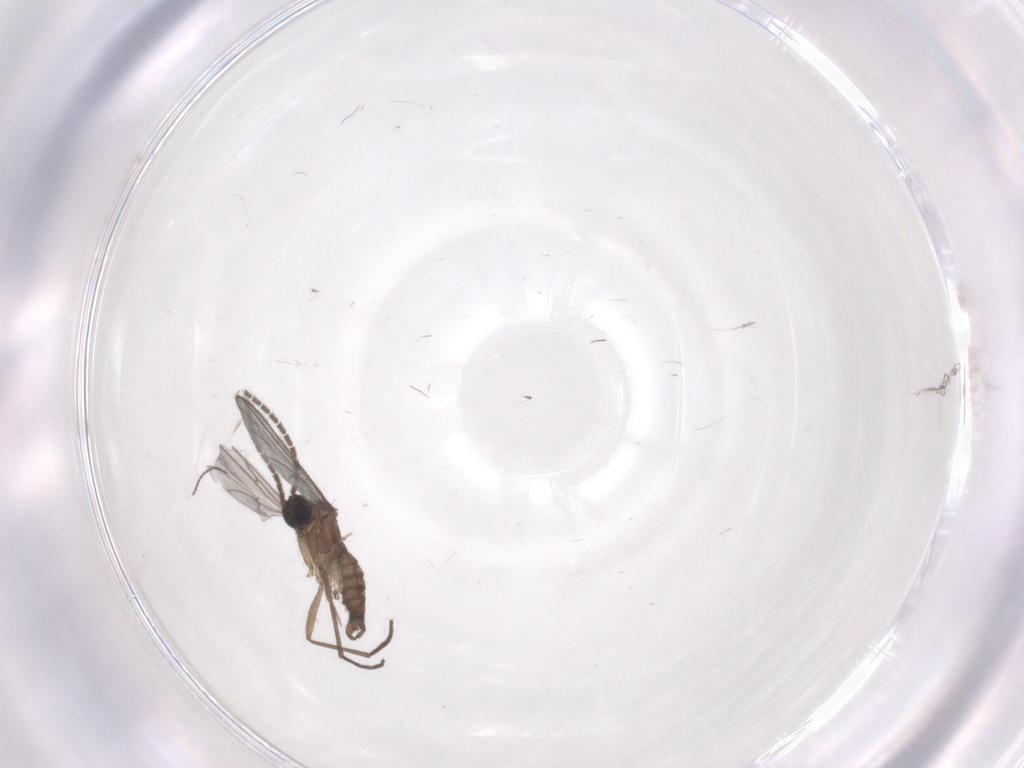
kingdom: Animalia
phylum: Arthropoda
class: Insecta
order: Diptera
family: Sciaridae
